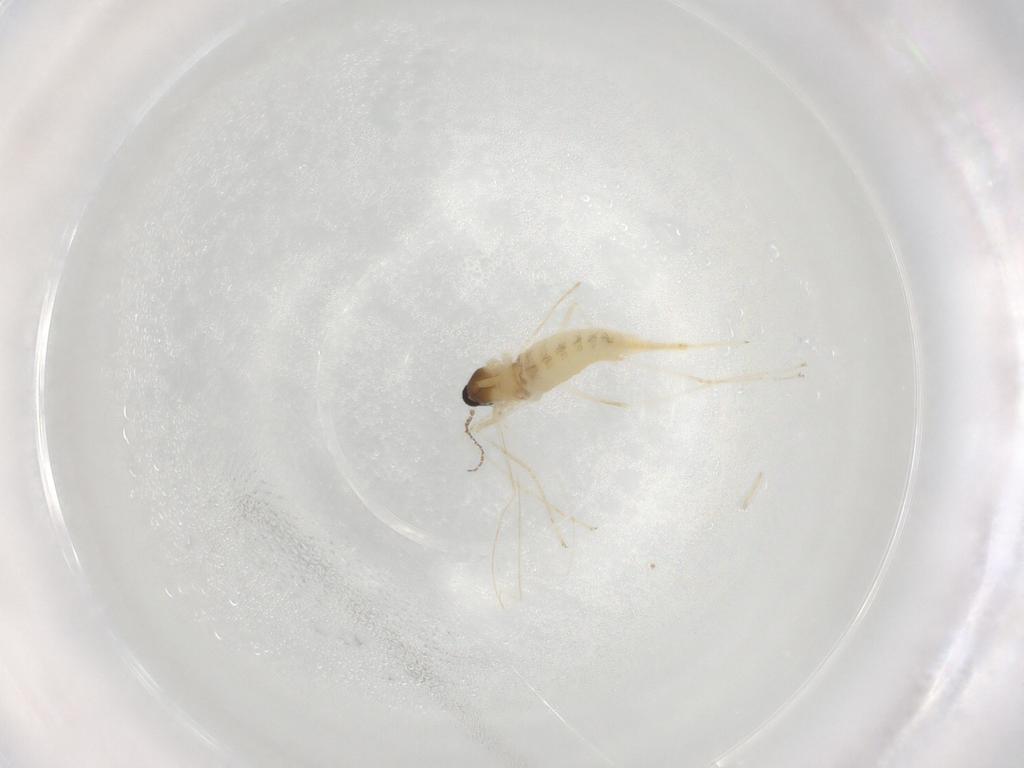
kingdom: Animalia
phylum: Arthropoda
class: Insecta
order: Diptera
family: Cecidomyiidae
